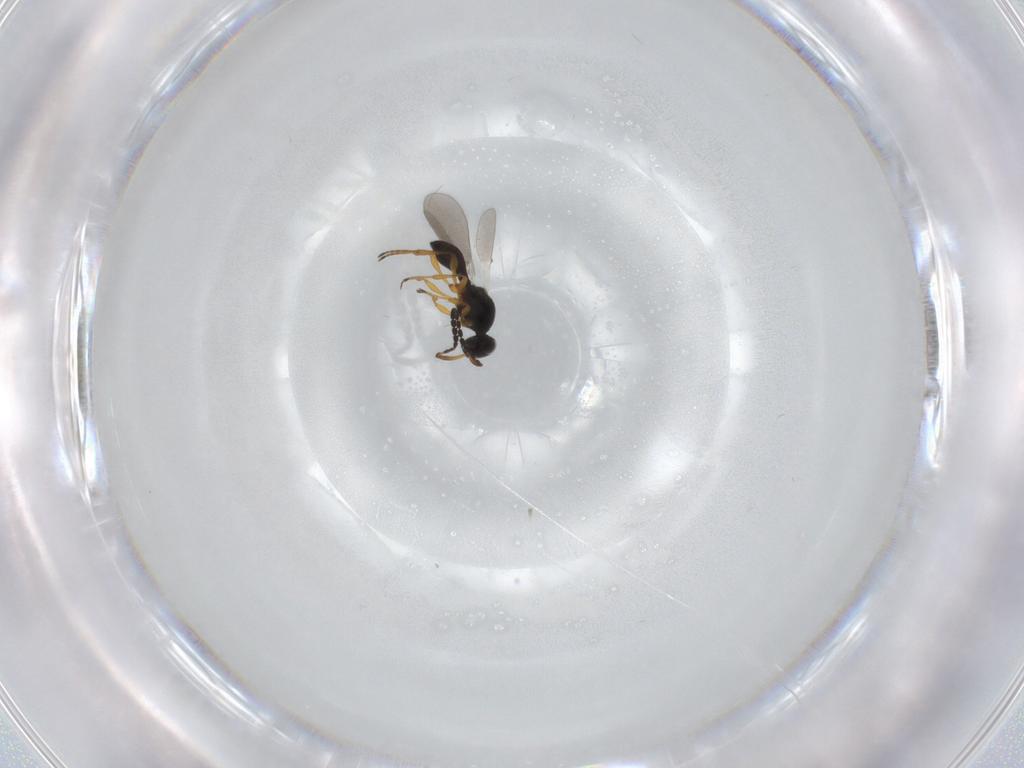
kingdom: Animalia
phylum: Arthropoda
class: Insecta
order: Hymenoptera
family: Platygastridae
